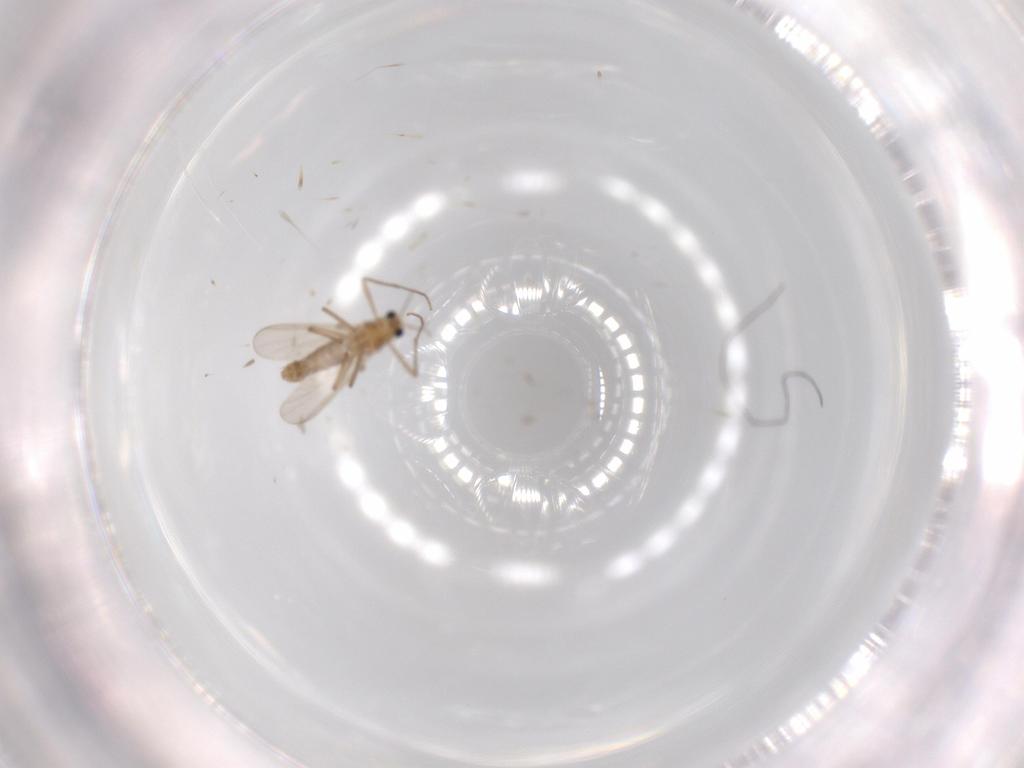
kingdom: Animalia
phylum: Arthropoda
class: Insecta
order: Diptera
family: Chironomidae
